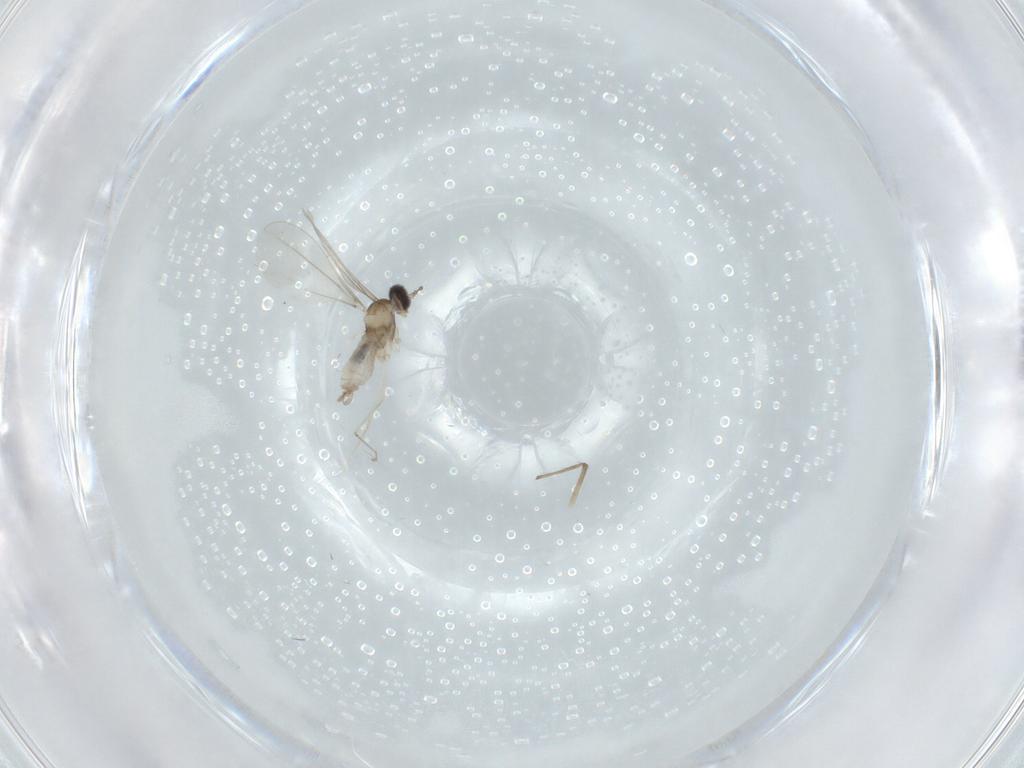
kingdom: Animalia
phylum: Arthropoda
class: Insecta
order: Diptera
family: Cecidomyiidae
